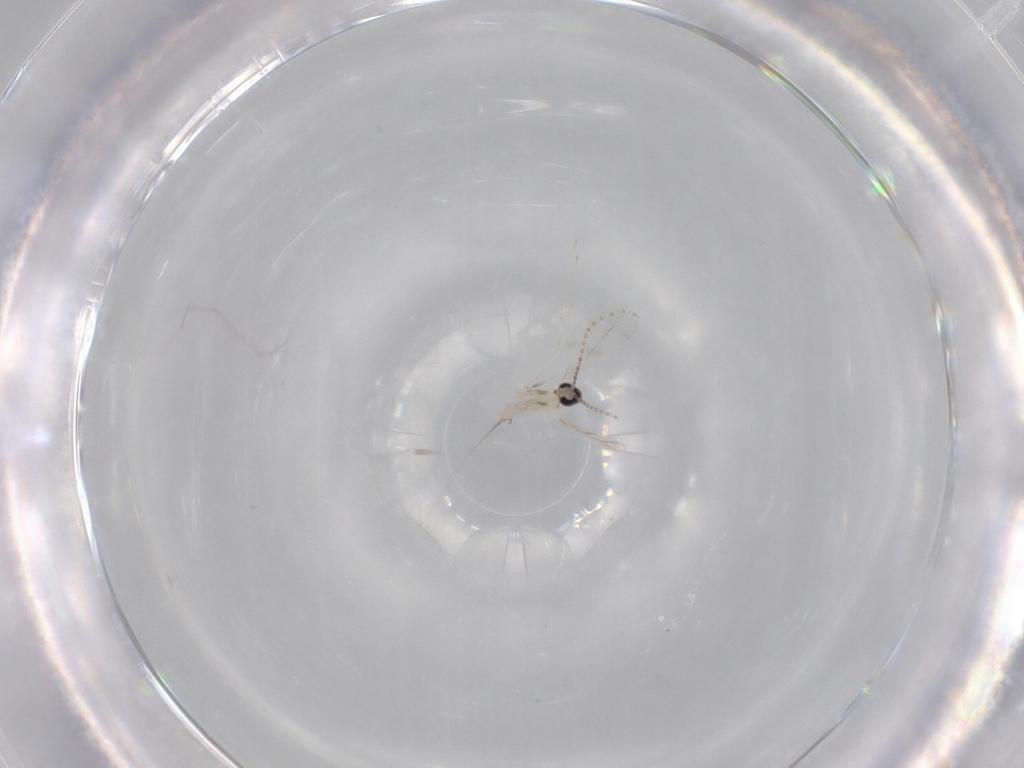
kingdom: Animalia
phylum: Arthropoda
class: Insecta
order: Diptera
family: Cecidomyiidae
